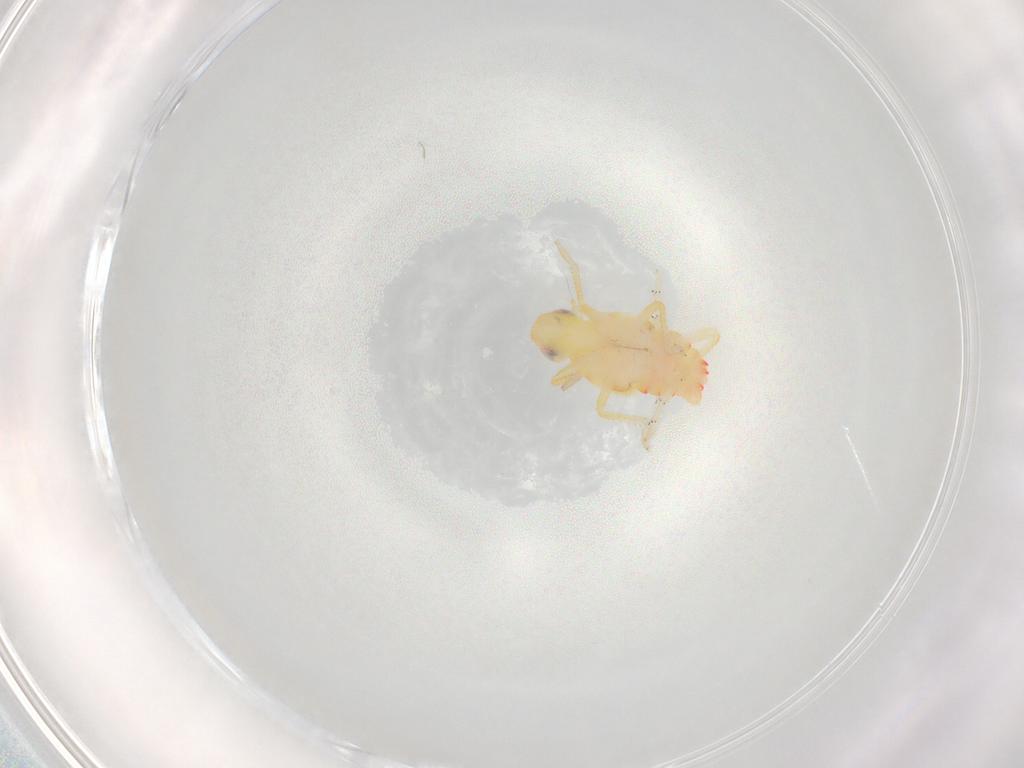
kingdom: Animalia
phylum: Arthropoda
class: Insecta
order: Hemiptera
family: Tropiduchidae
